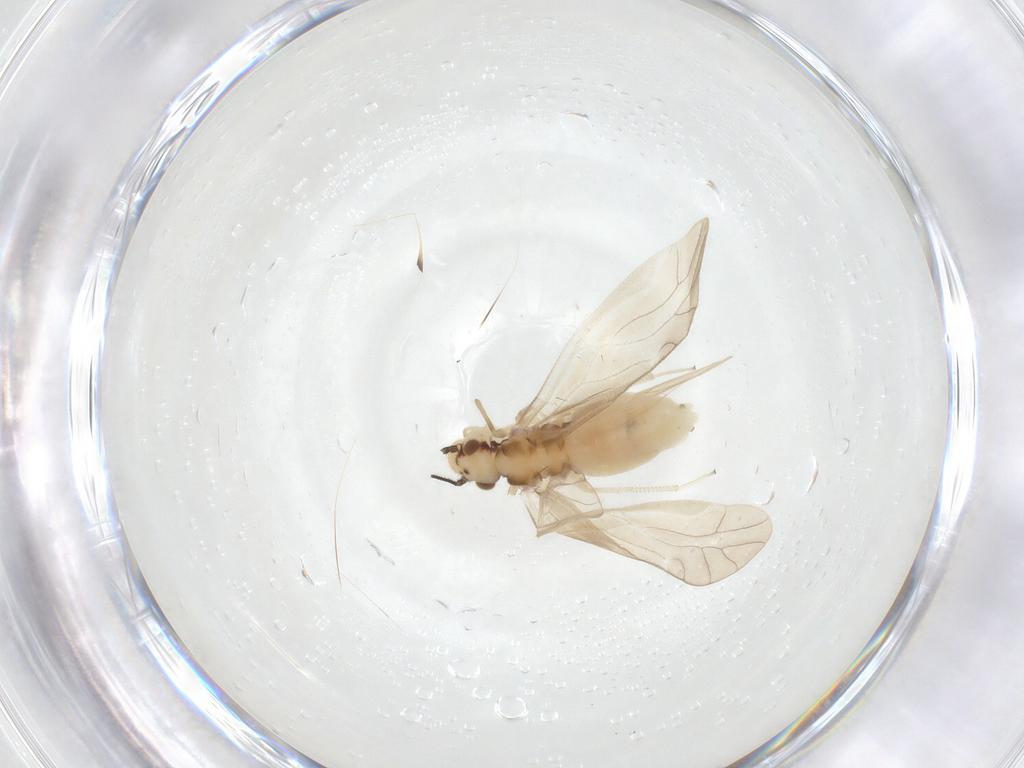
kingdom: Animalia
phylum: Arthropoda
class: Insecta
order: Psocodea
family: Caeciliusidae
